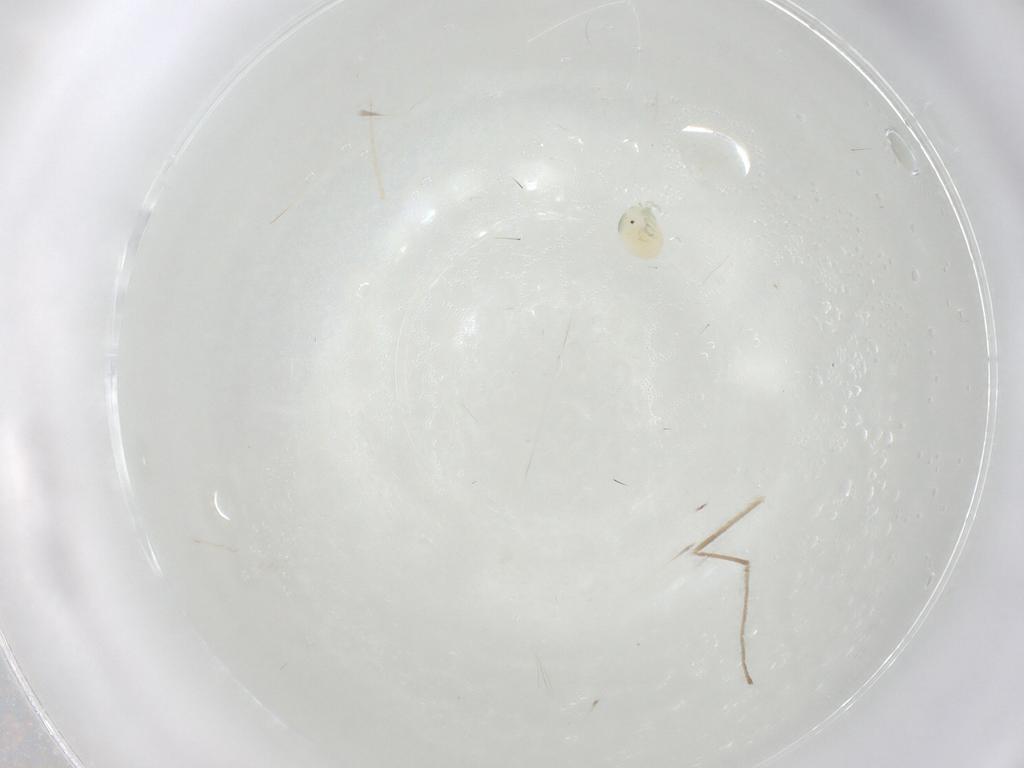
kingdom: Animalia
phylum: Arthropoda
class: Arachnida
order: Trombidiformes
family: Arrenuridae
